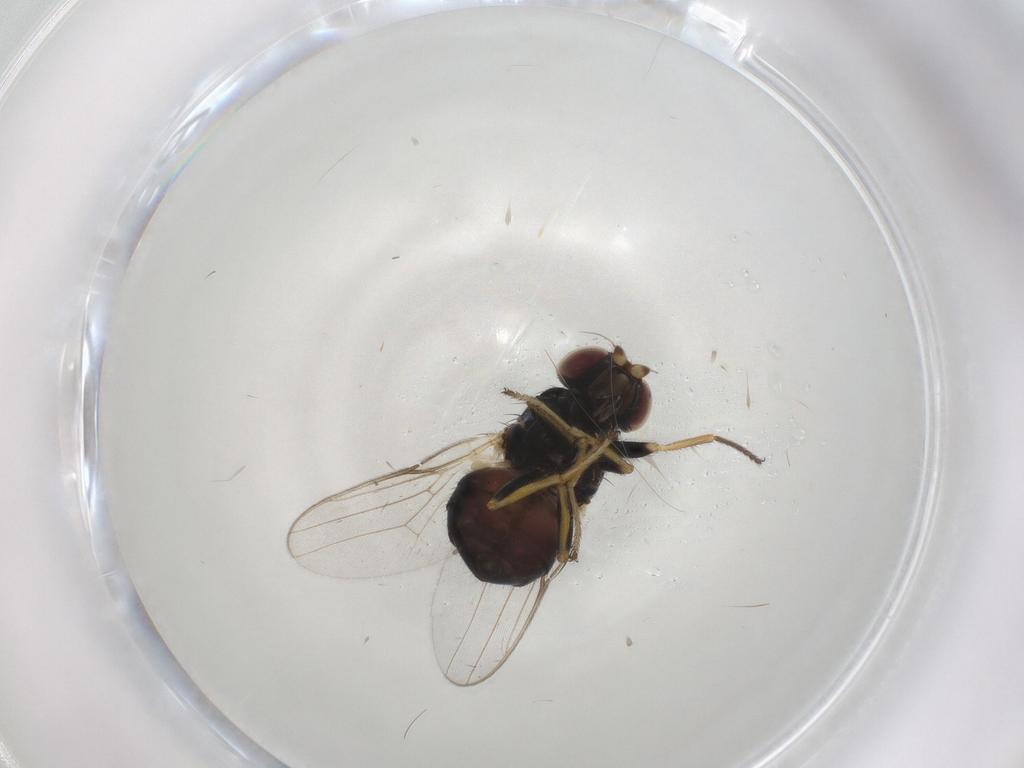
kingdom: Animalia
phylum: Arthropoda
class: Insecta
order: Diptera
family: Chloropidae
